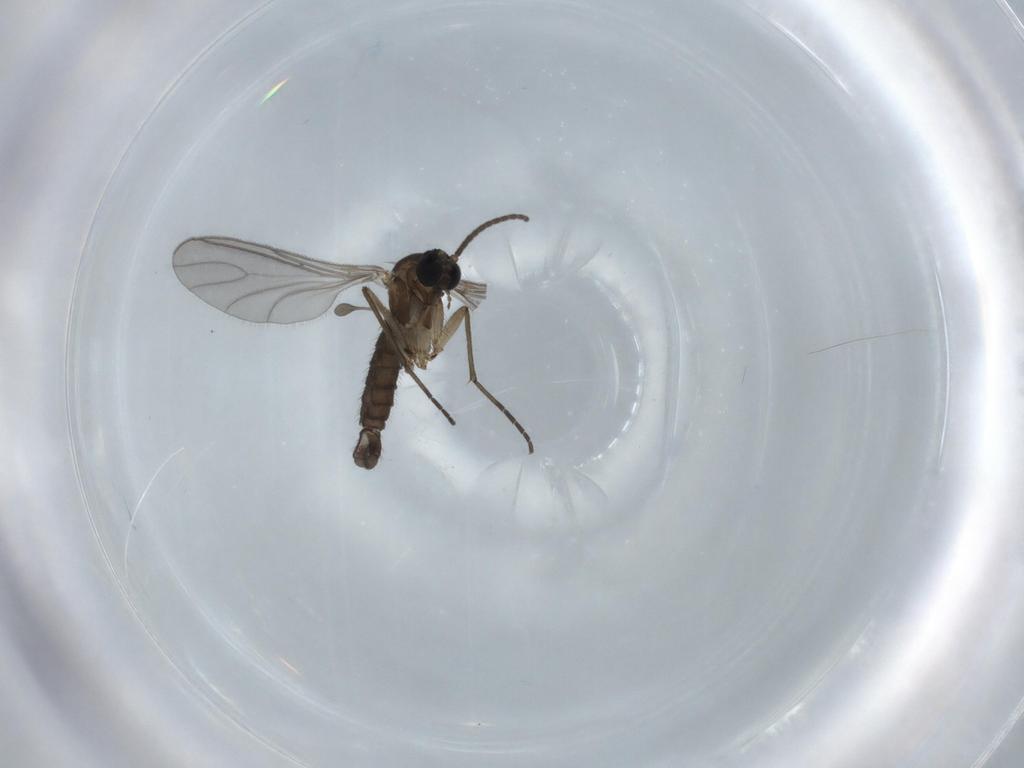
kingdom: Animalia
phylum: Arthropoda
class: Insecta
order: Diptera
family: Sciaridae
